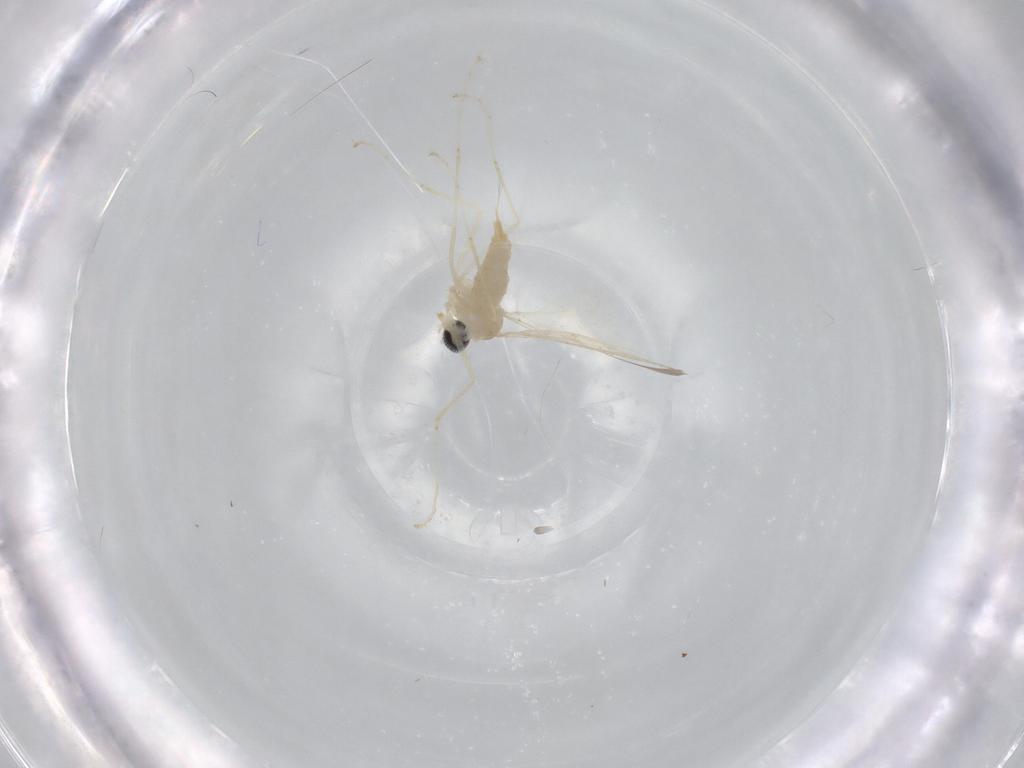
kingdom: Animalia
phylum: Arthropoda
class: Insecta
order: Diptera
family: Cecidomyiidae
